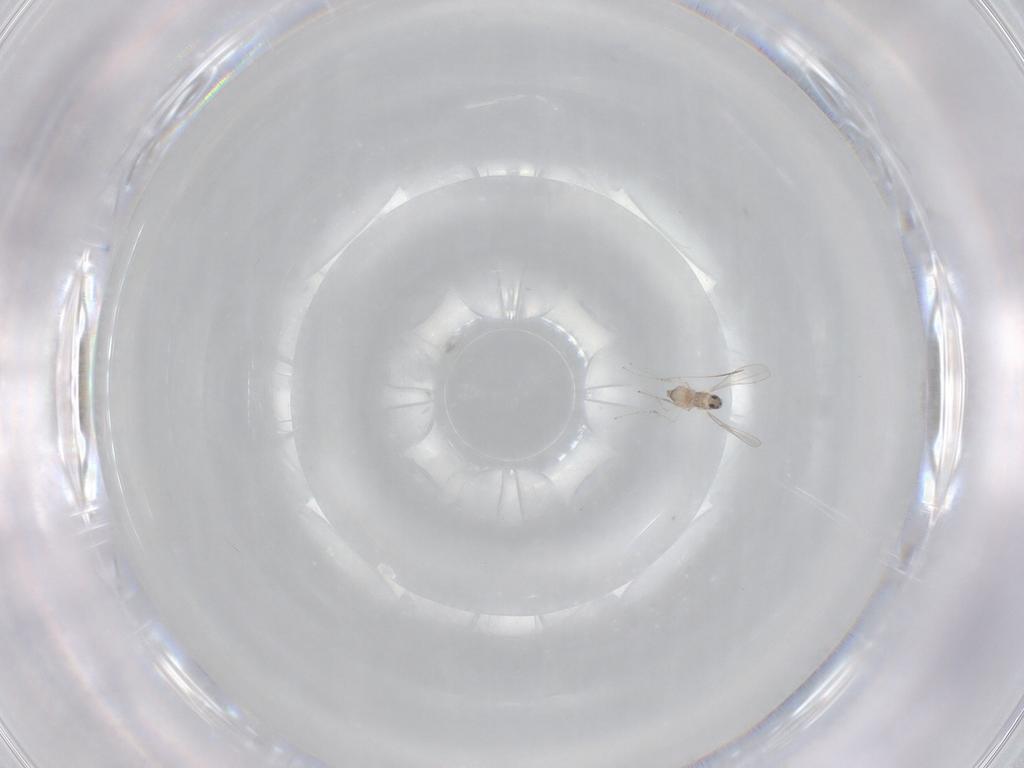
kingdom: Animalia
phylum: Arthropoda
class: Insecta
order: Diptera
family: Cecidomyiidae
